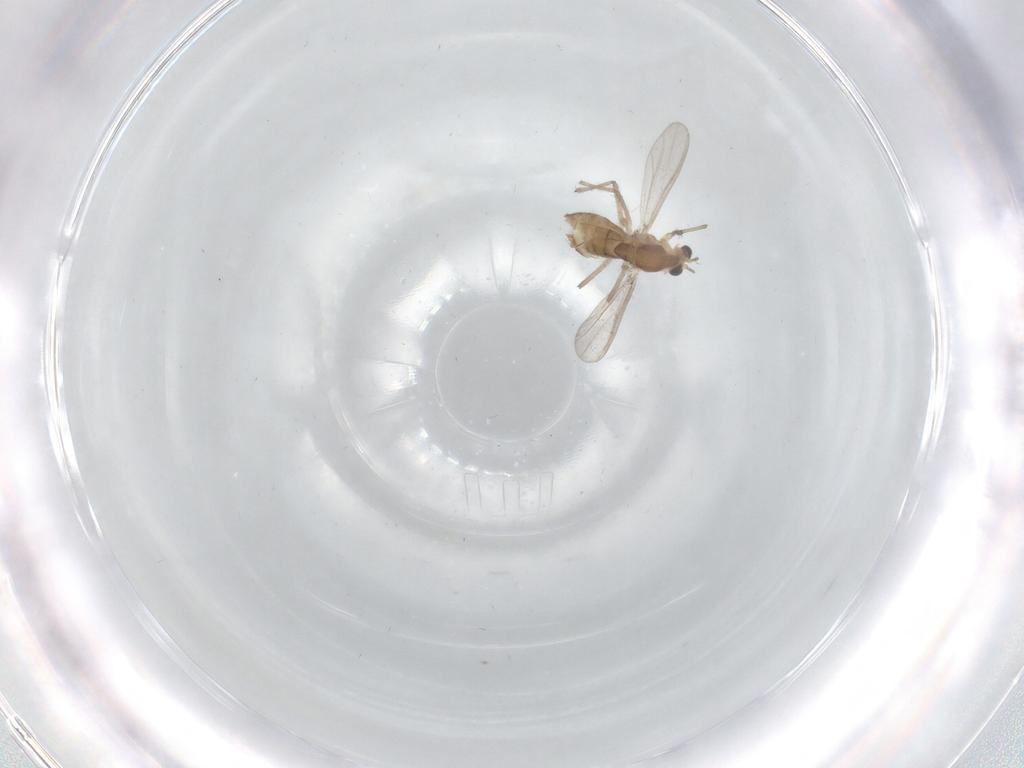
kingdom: Animalia
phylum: Arthropoda
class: Insecta
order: Diptera
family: Chironomidae
